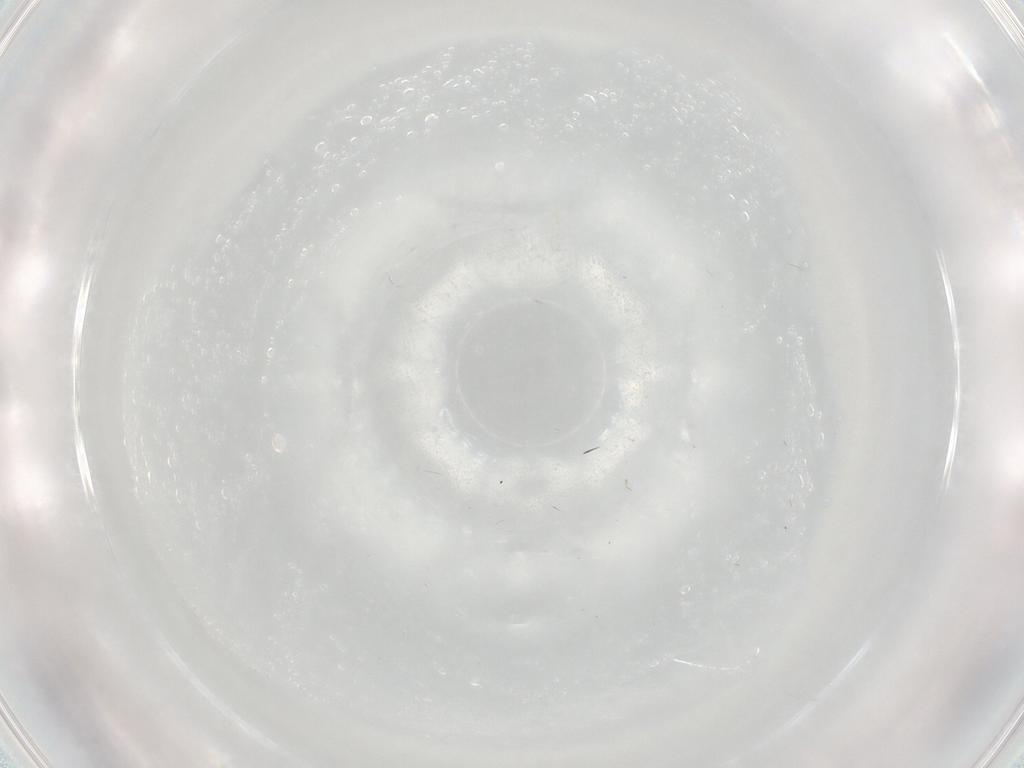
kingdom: Animalia
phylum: Arthropoda
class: Insecta
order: Diptera
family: Sciaridae
